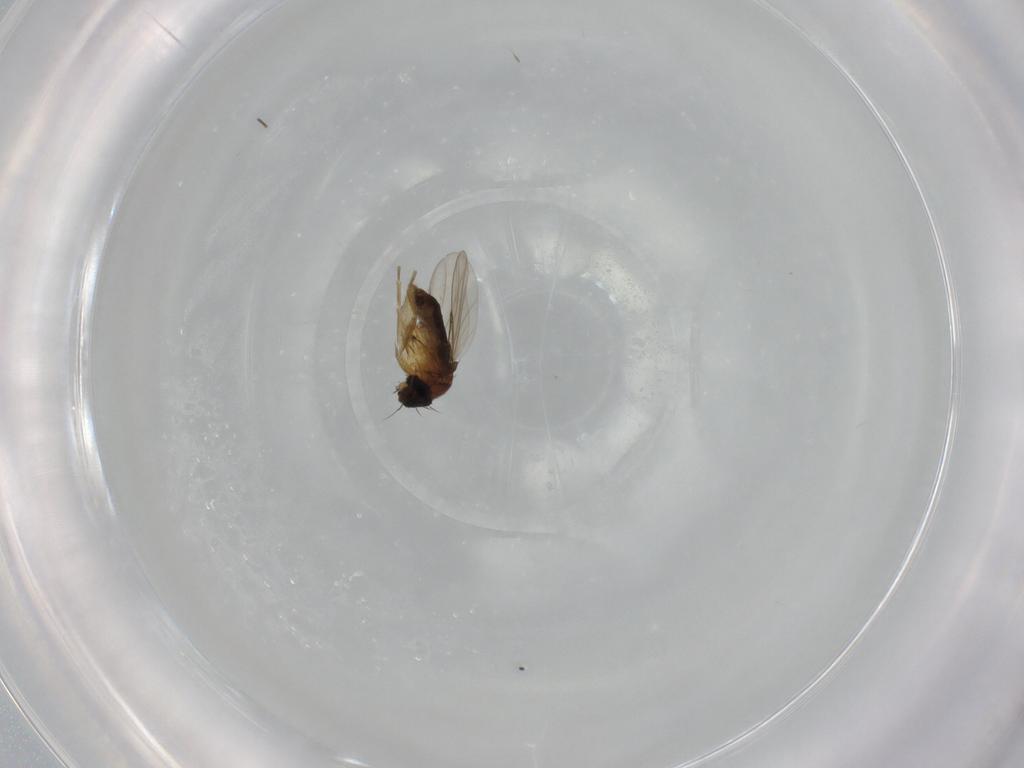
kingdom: Animalia
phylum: Arthropoda
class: Insecta
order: Diptera
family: Phoridae
